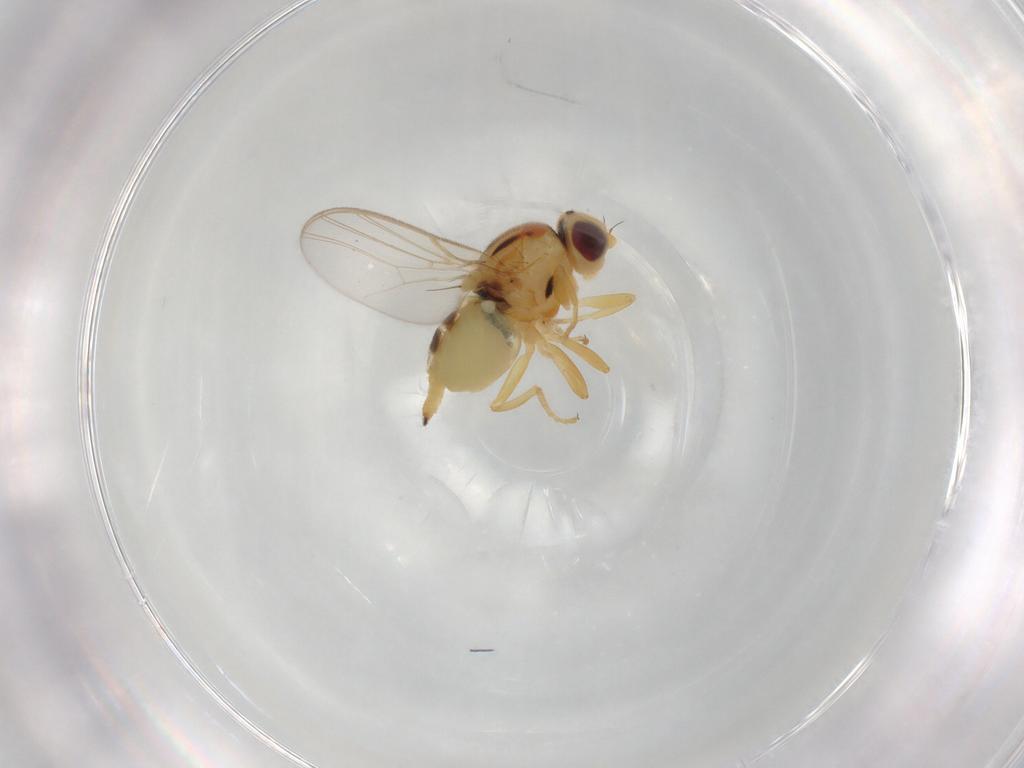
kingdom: Animalia
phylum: Arthropoda
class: Insecta
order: Diptera
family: Chloropidae
